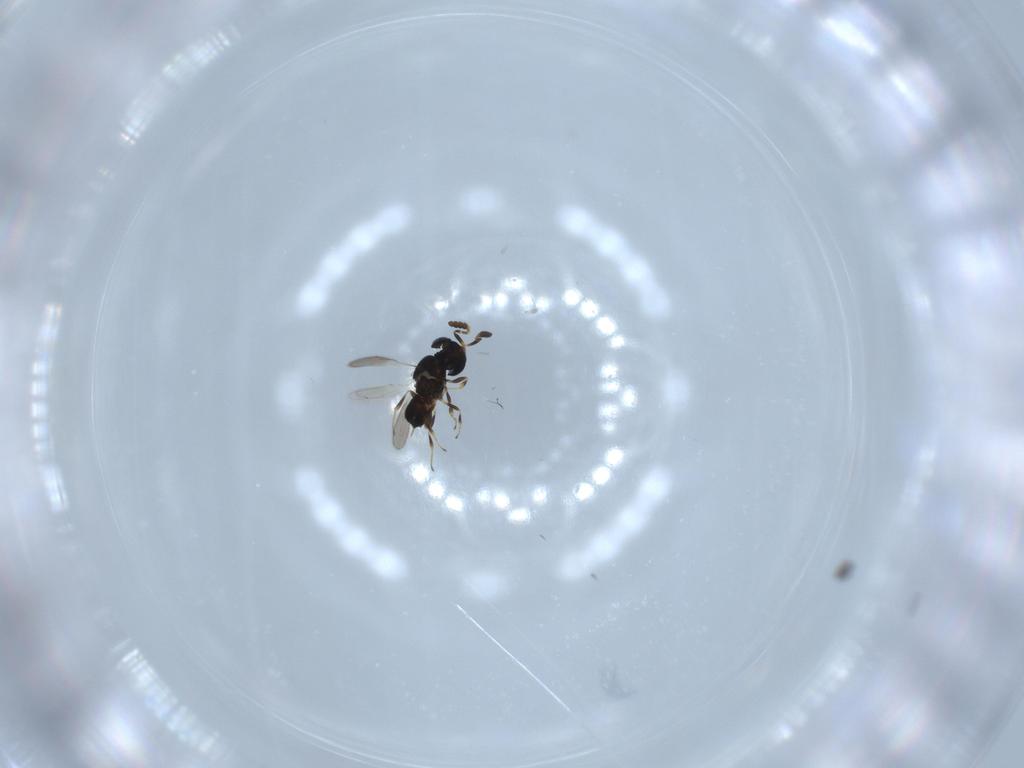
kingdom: Animalia
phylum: Arthropoda
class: Insecta
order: Hymenoptera
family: Scelionidae
